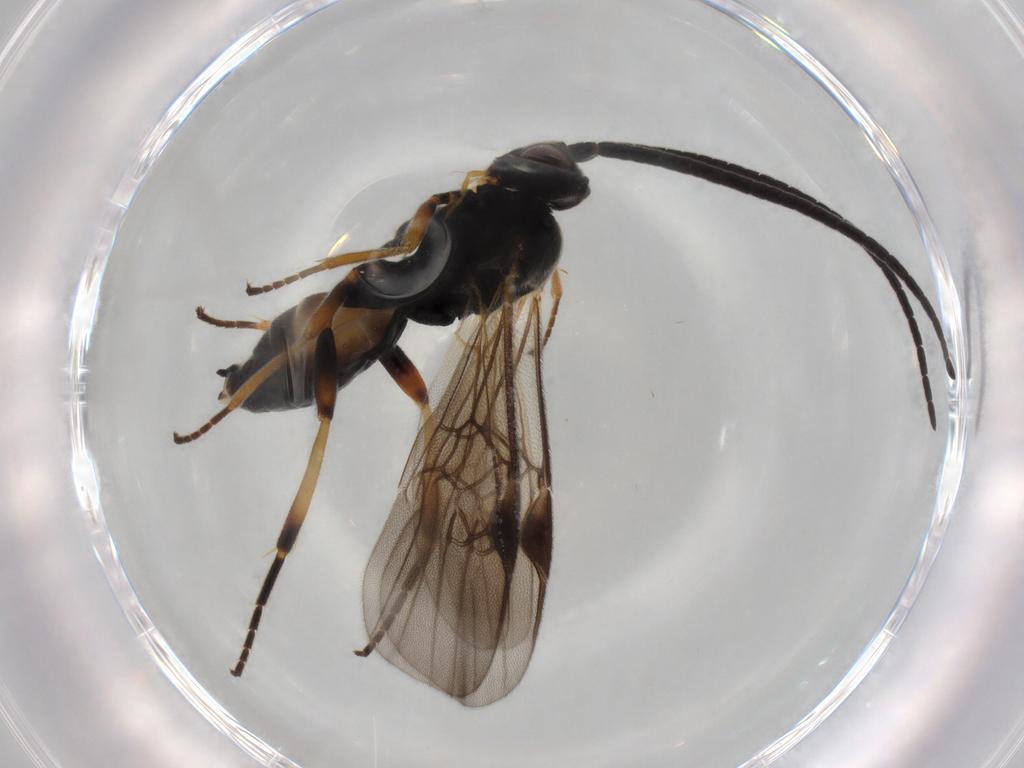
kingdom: Animalia
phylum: Arthropoda
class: Insecta
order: Hymenoptera
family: Braconidae
